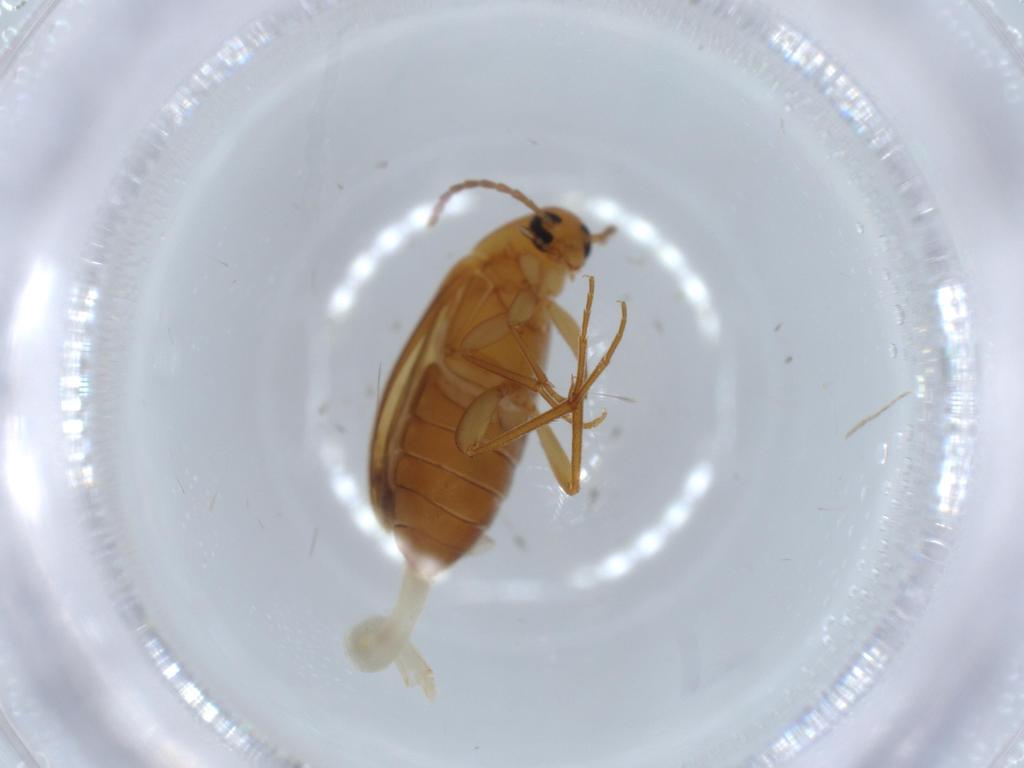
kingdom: Animalia
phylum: Arthropoda
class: Insecta
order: Coleoptera
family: Scraptiidae
